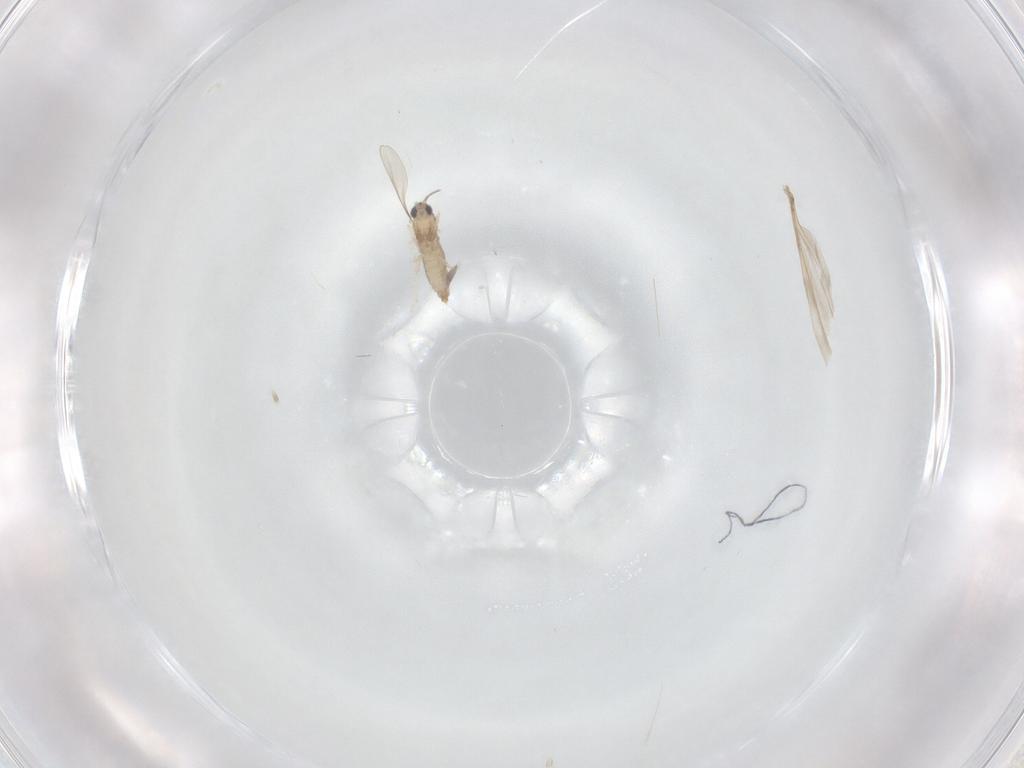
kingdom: Animalia
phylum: Arthropoda
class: Insecta
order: Diptera
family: Cecidomyiidae
